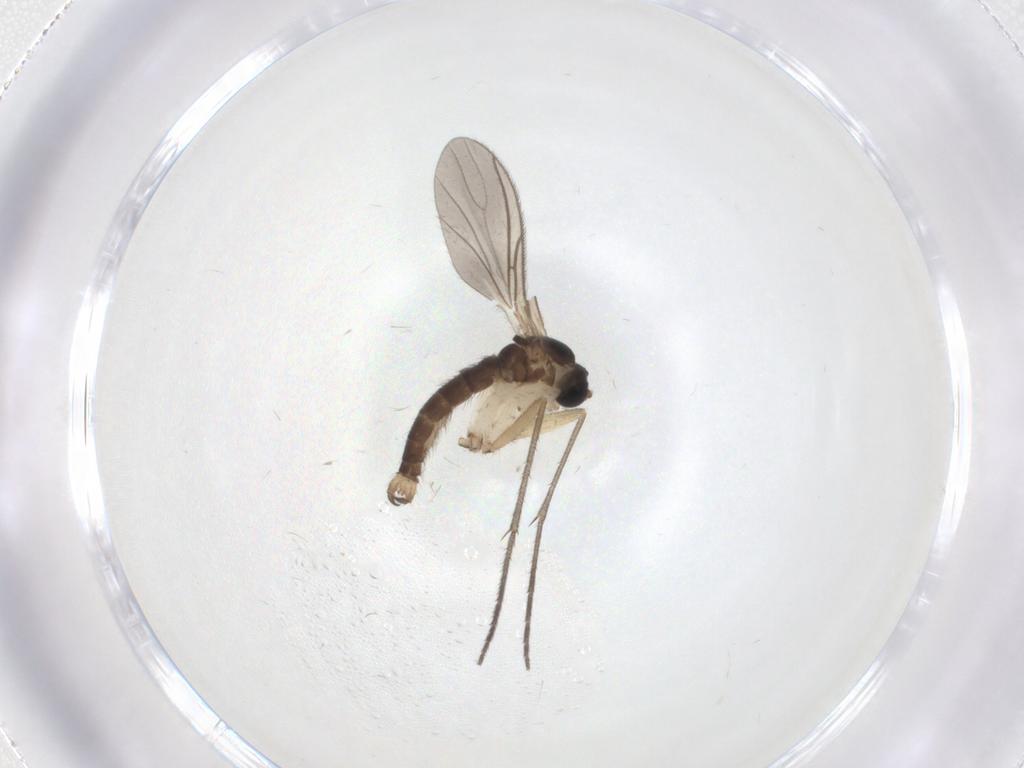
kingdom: Animalia
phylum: Arthropoda
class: Insecta
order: Diptera
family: Sciaridae
